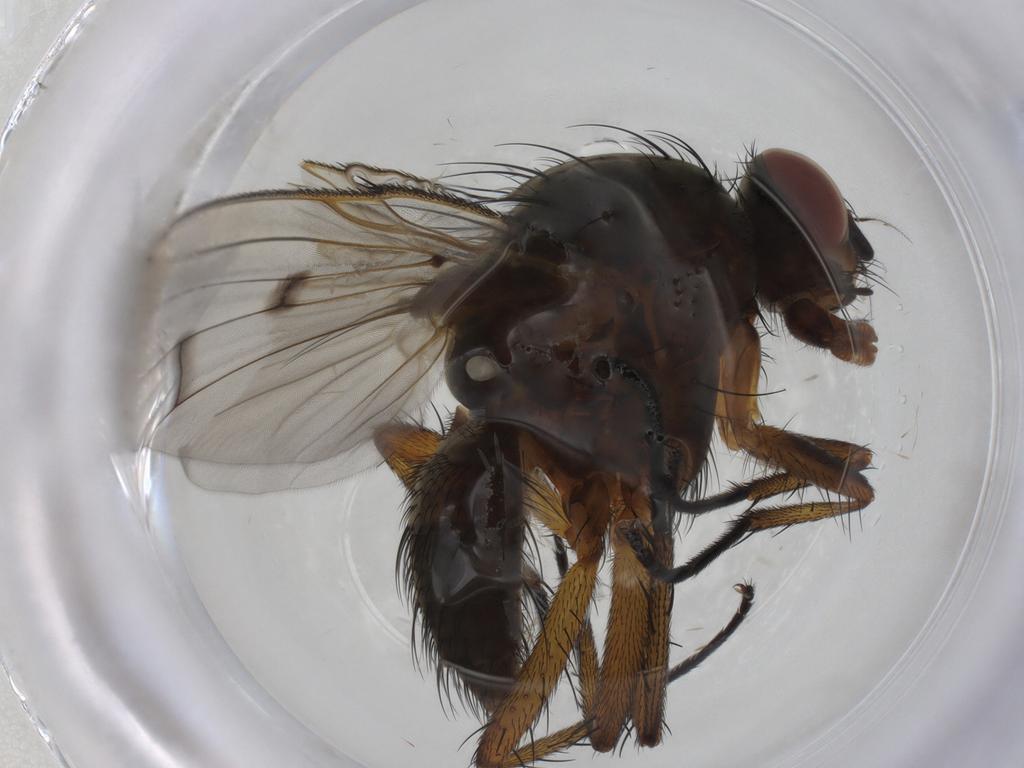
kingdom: Animalia
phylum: Arthropoda
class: Insecta
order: Diptera
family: Anthomyiidae
